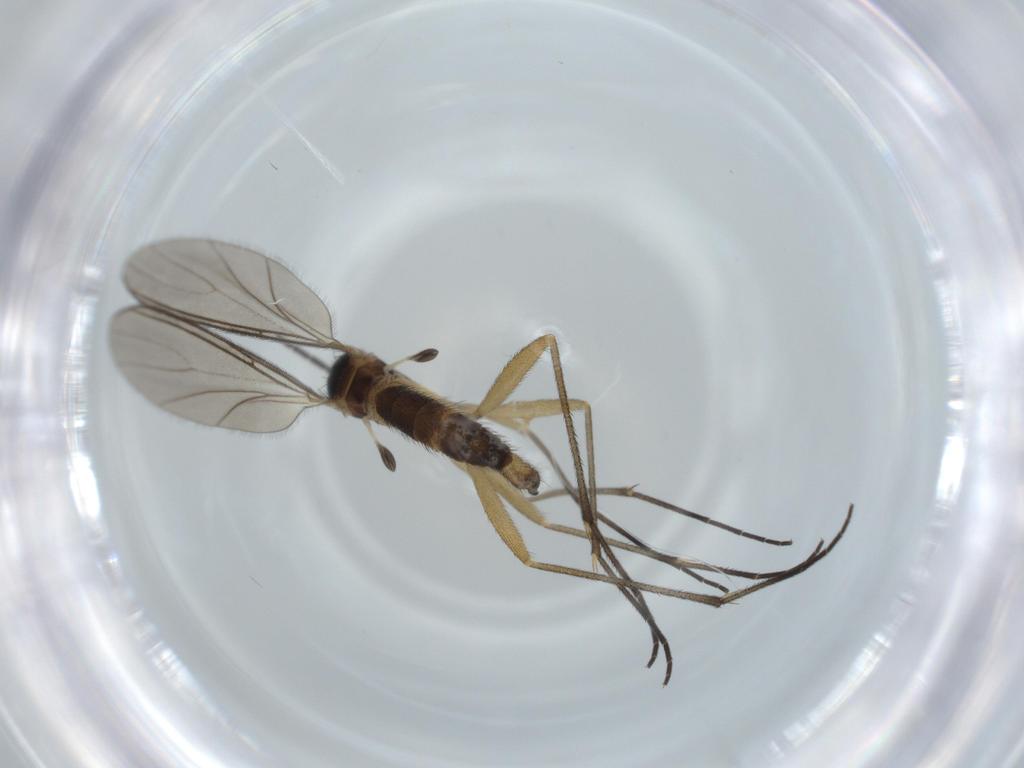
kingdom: Animalia
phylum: Arthropoda
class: Insecta
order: Diptera
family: Sciaridae
